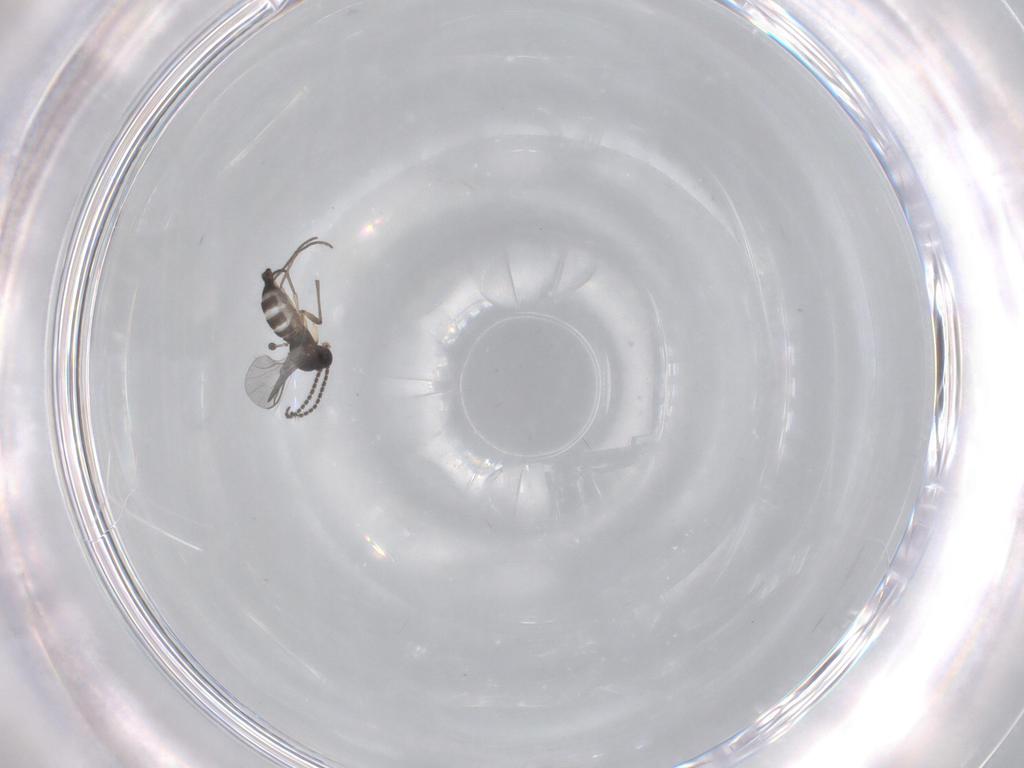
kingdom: Animalia
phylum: Arthropoda
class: Insecta
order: Diptera
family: Sciaridae
